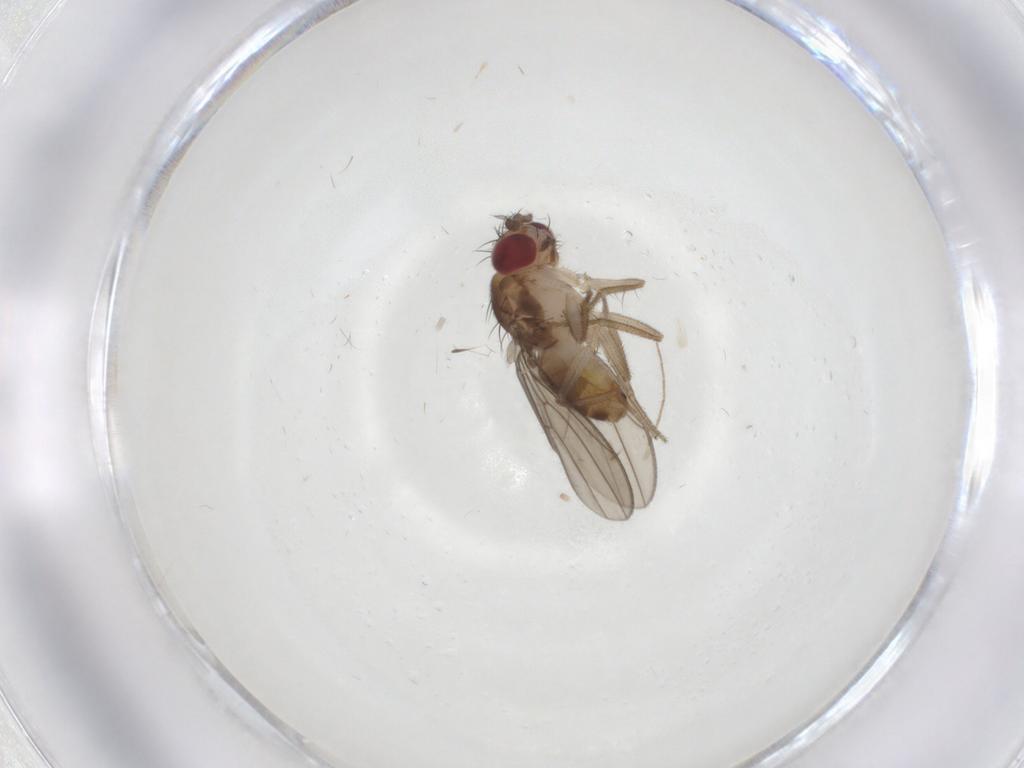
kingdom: Animalia
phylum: Arthropoda
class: Insecta
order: Diptera
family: Drosophilidae
